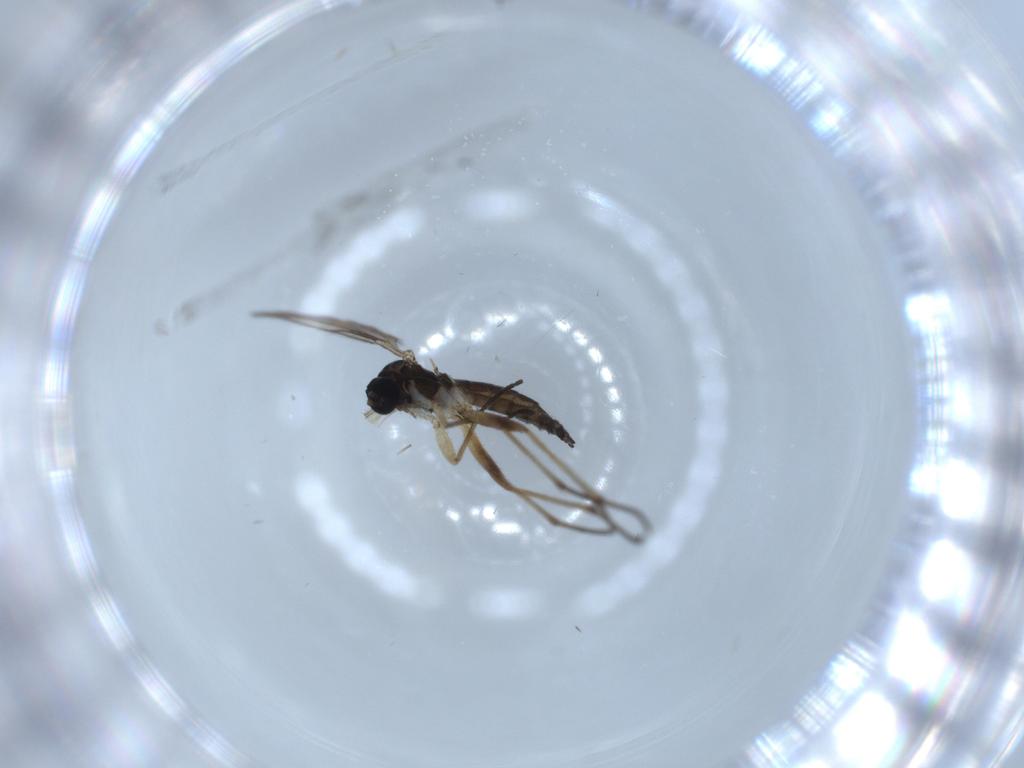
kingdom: Animalia
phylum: Arthropoda
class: Insecta
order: Diptera
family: Sciaridae
